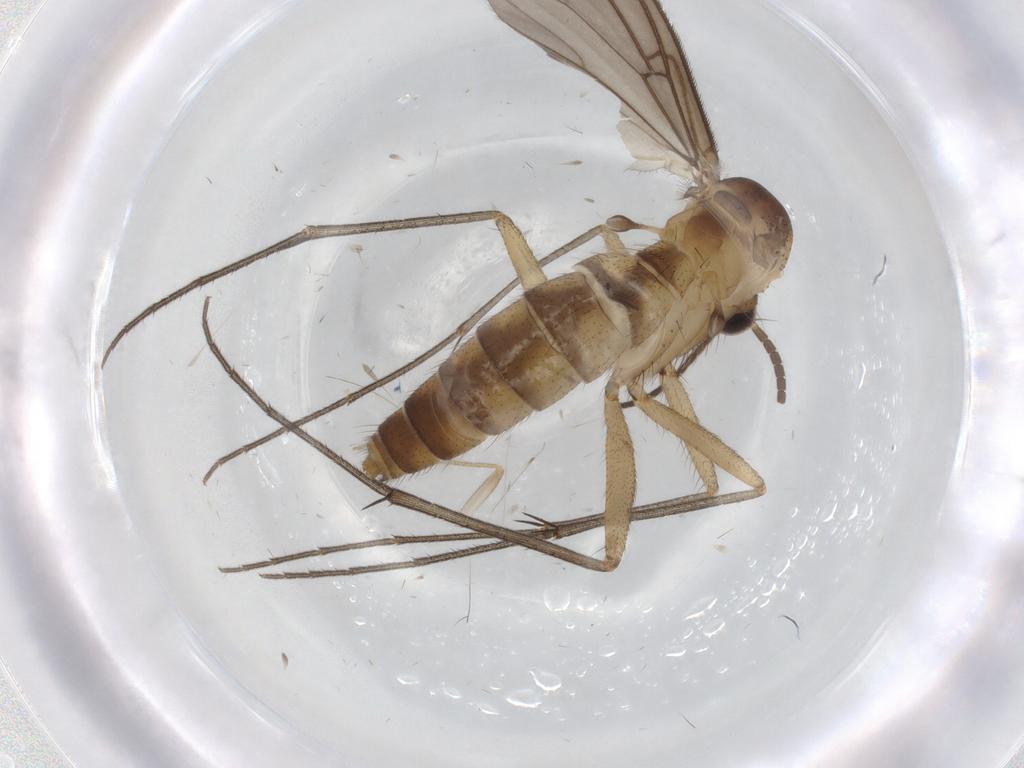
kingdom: Animalia
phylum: Arthropoda
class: Insecta
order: Diptera
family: Mycetophilidae
